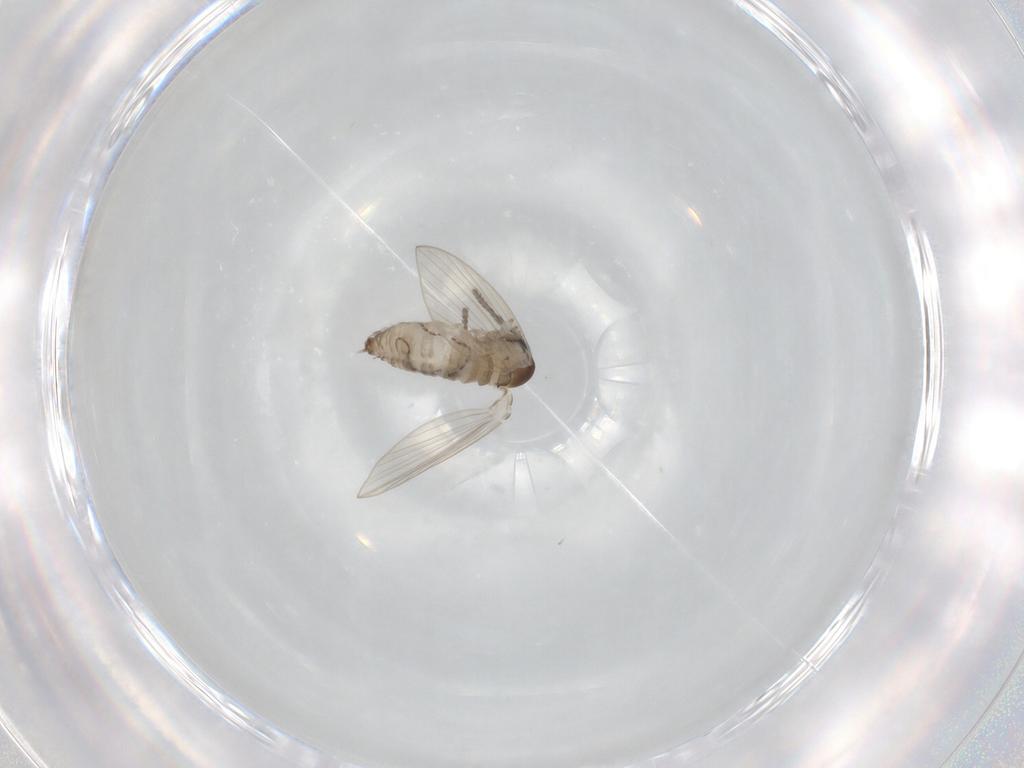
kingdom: Animalia
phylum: Arthropoda
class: Insecta
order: Diptera
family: Psychodidae
